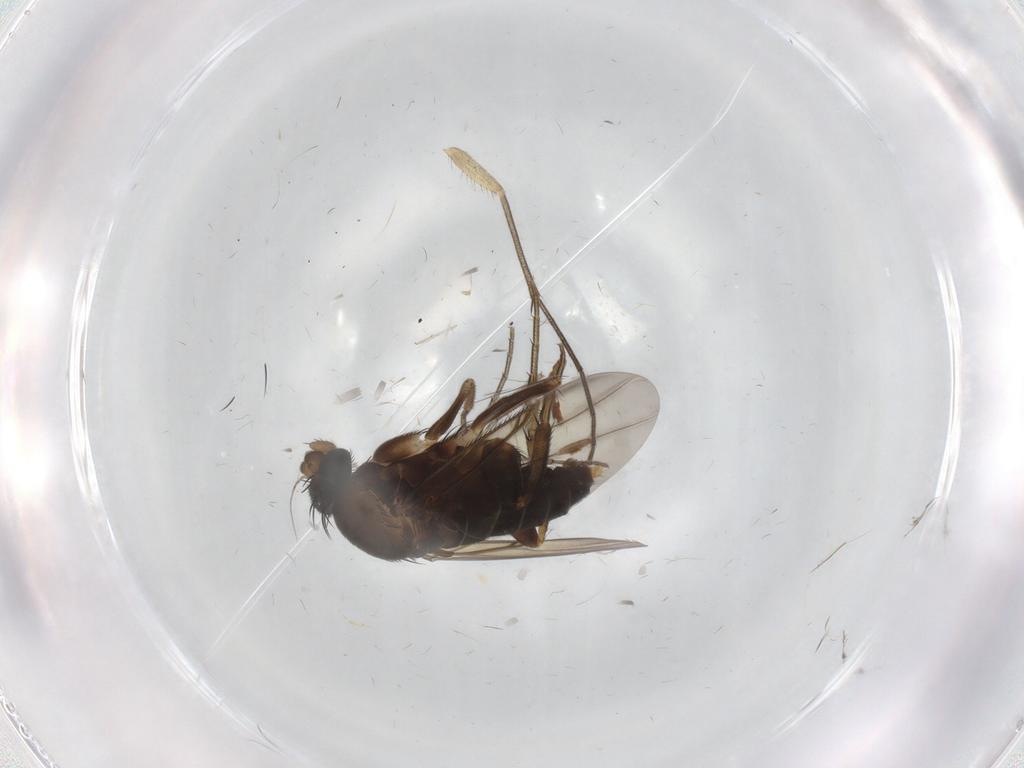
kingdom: Animalia
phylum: Arthropoda
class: Insecta
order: Diptera
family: Phoridae
